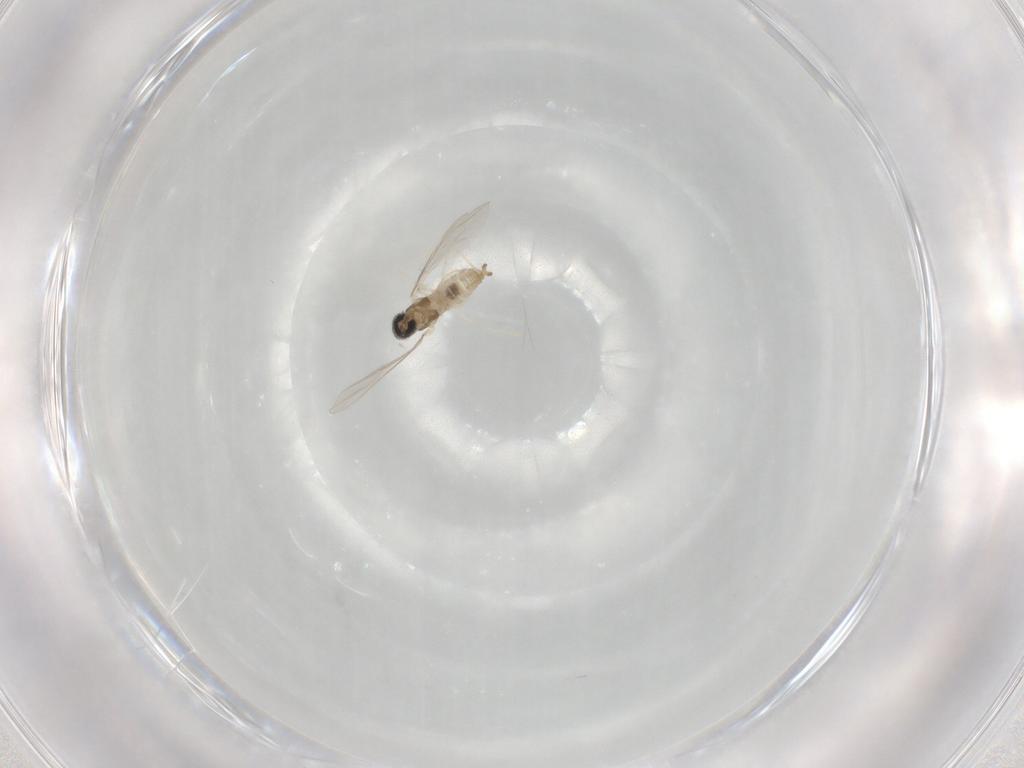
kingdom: Animalia
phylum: Arthropoda
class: Insecta
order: Diptera
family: Cecidomyiidae
